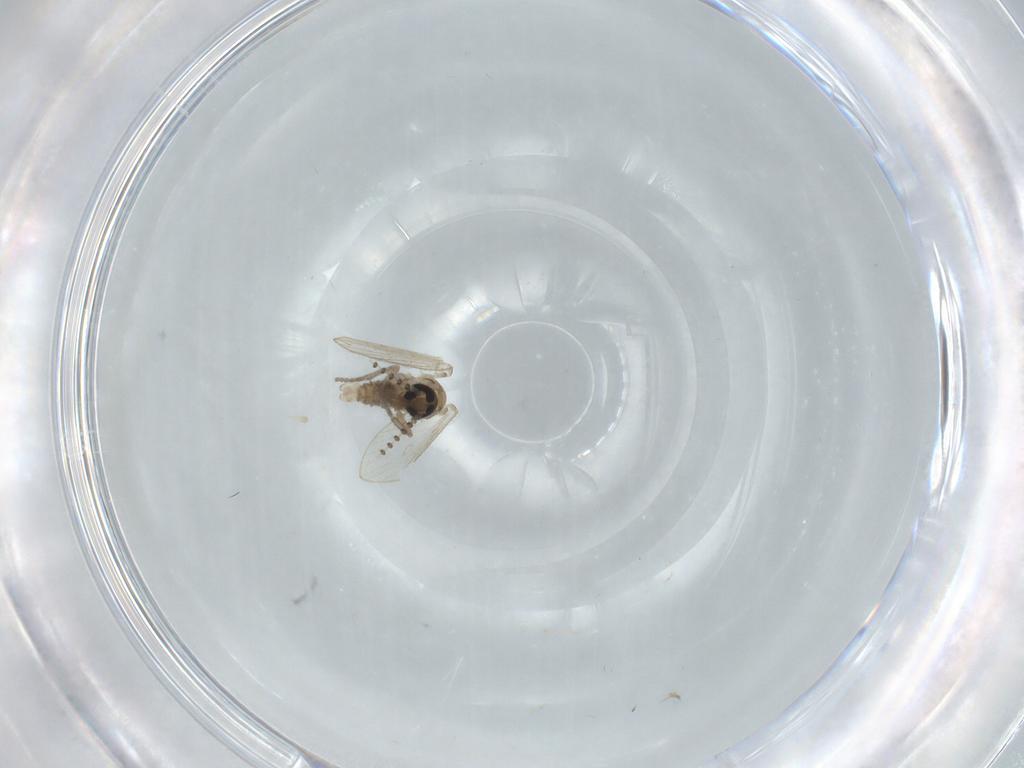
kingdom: Animalia
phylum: Arthropoda
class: Insecta
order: Diptera
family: Psychodidae
